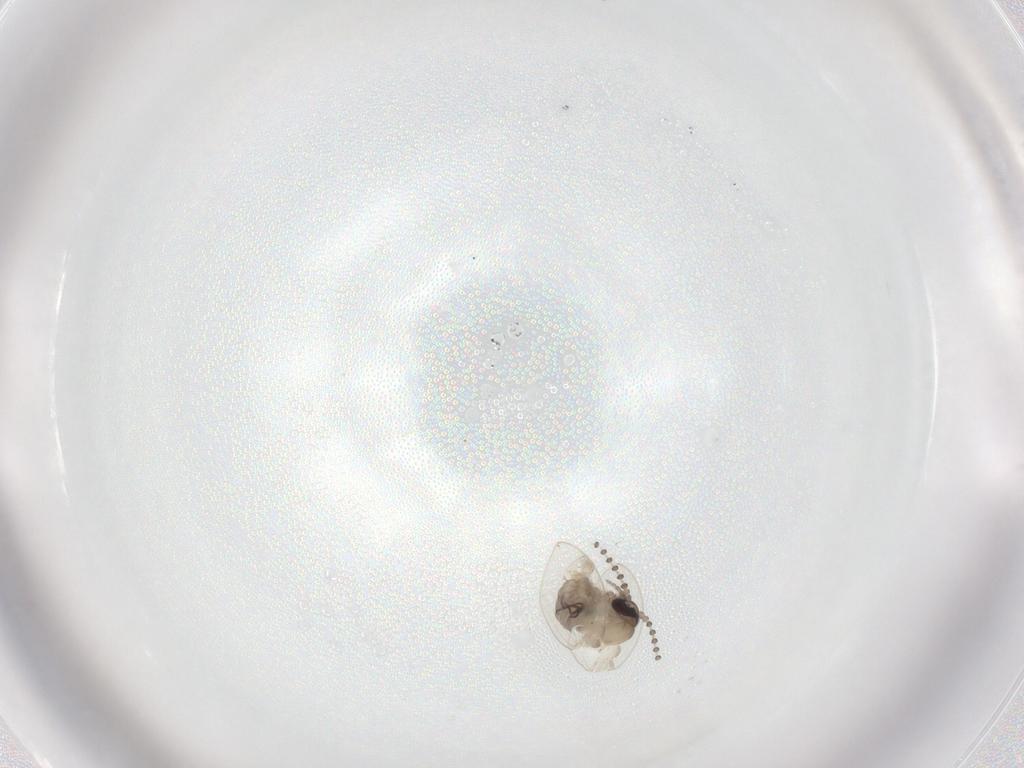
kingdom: Animalia
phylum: Arthropoda
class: Insecta
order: Diptera
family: Psychodidae
